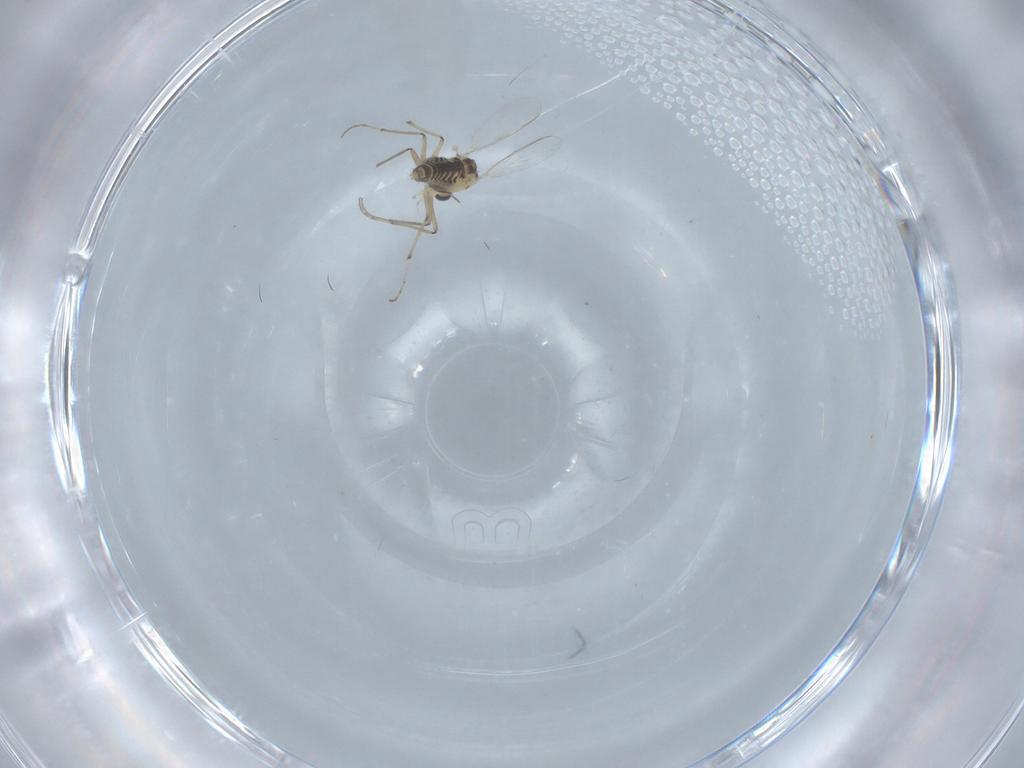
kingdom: Animalia
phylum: Arthropoda
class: Insecta
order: Diptera
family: Chironomidae
